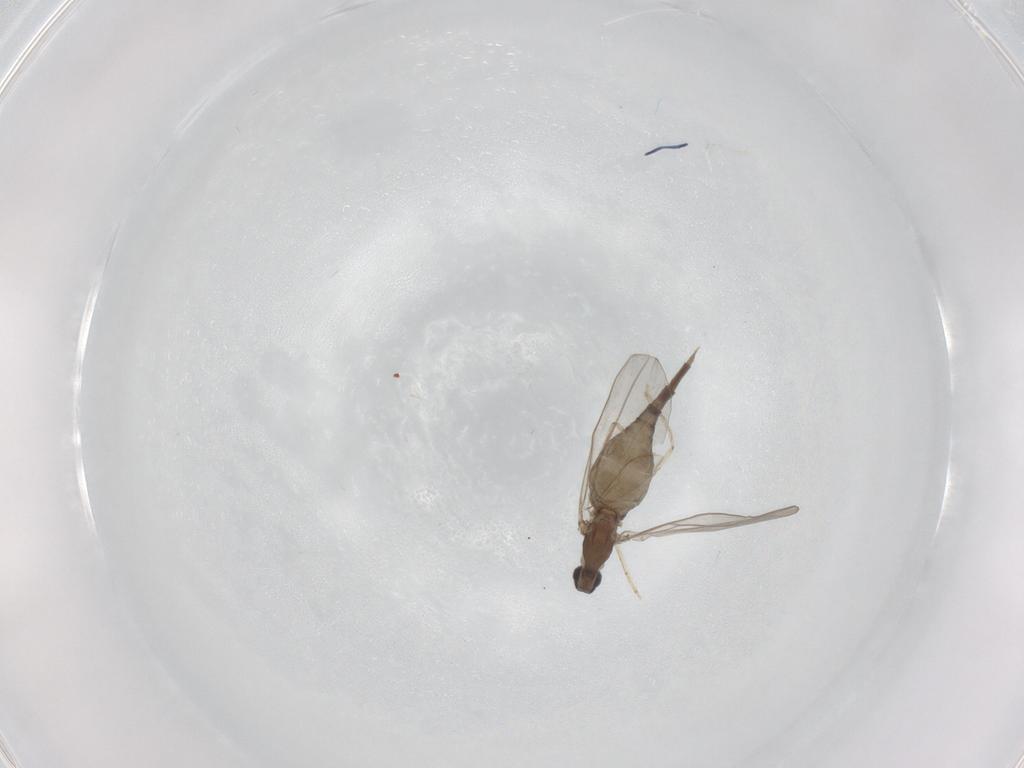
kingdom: Animalia
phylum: Arthropoda
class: Insecta
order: Diptera
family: Cecidomyiidae
